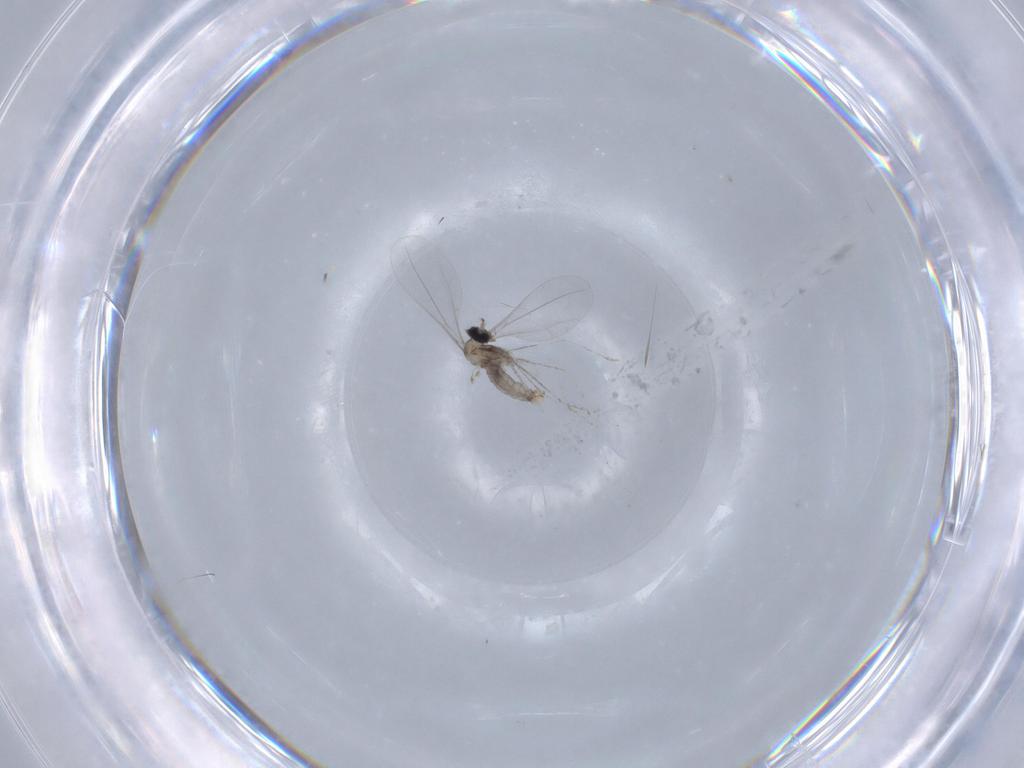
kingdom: Animalia
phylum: Arthropoda
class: Insecta
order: Diptera
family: Cecidomyiidae
